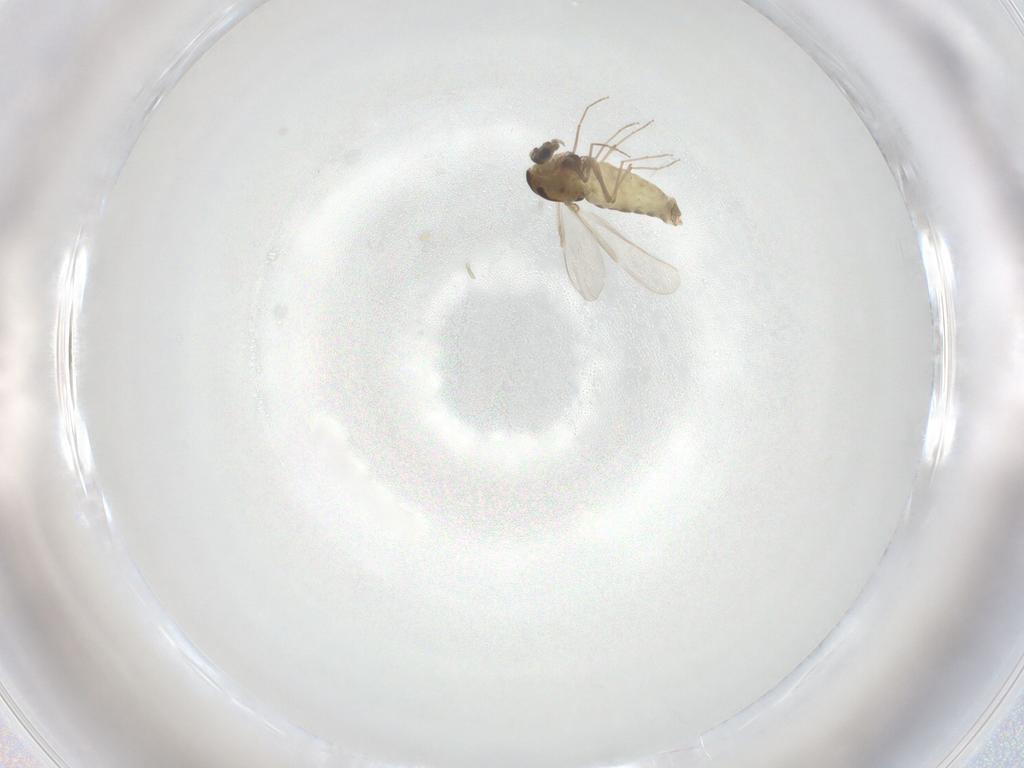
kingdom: Animalia
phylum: Arthropoda
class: Insecta
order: Diptera
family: Chironomidae
